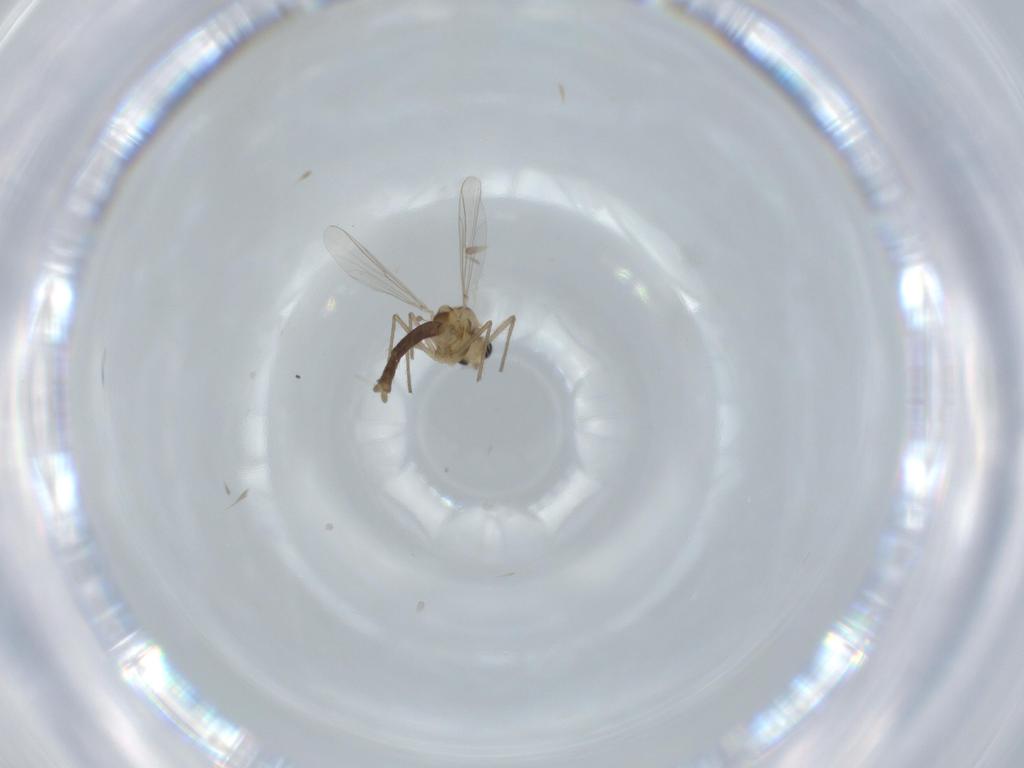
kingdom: Animalia
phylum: Arthropoda
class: Insecta
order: Diptera
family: Chironomidae
